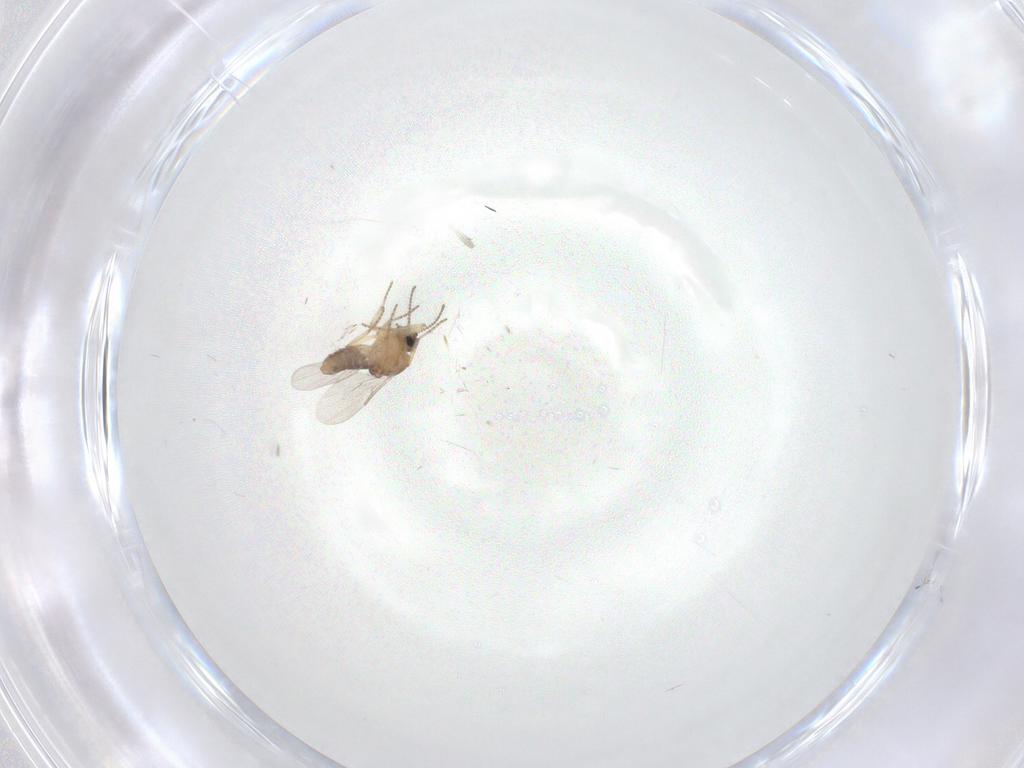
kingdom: Animalia
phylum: Arthropoda
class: Insecta
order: Diptera
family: Ceratopogonidae
